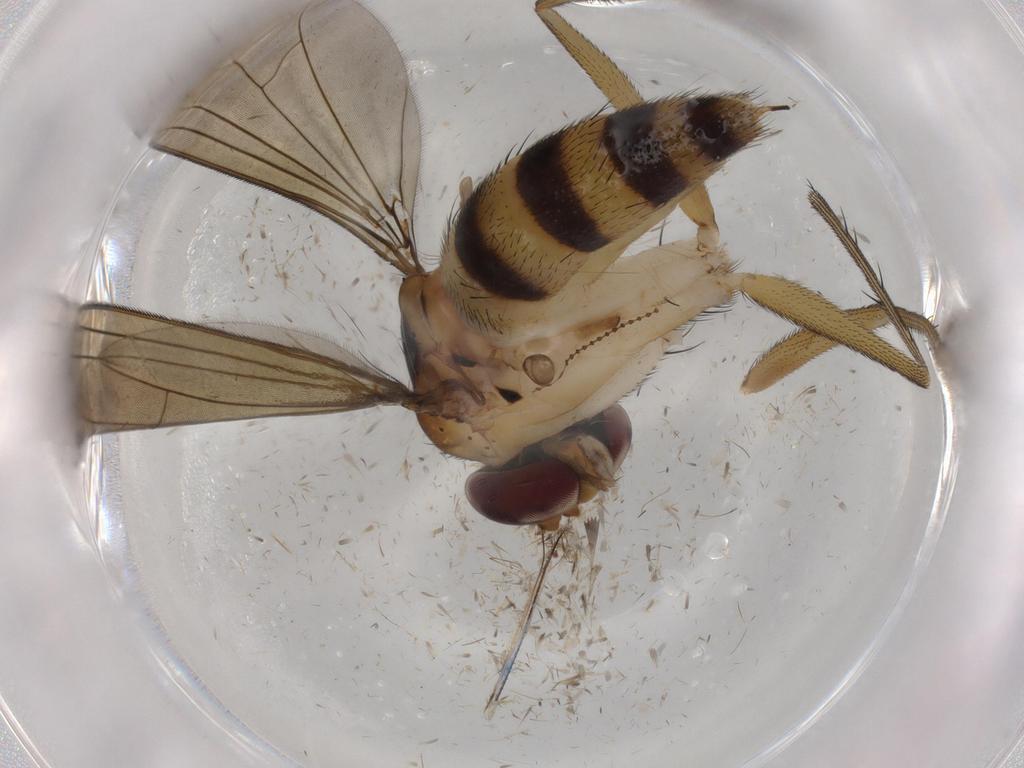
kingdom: Animalia
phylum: Arthropoda
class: Insecta
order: Diptera
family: Dolichopodidae
